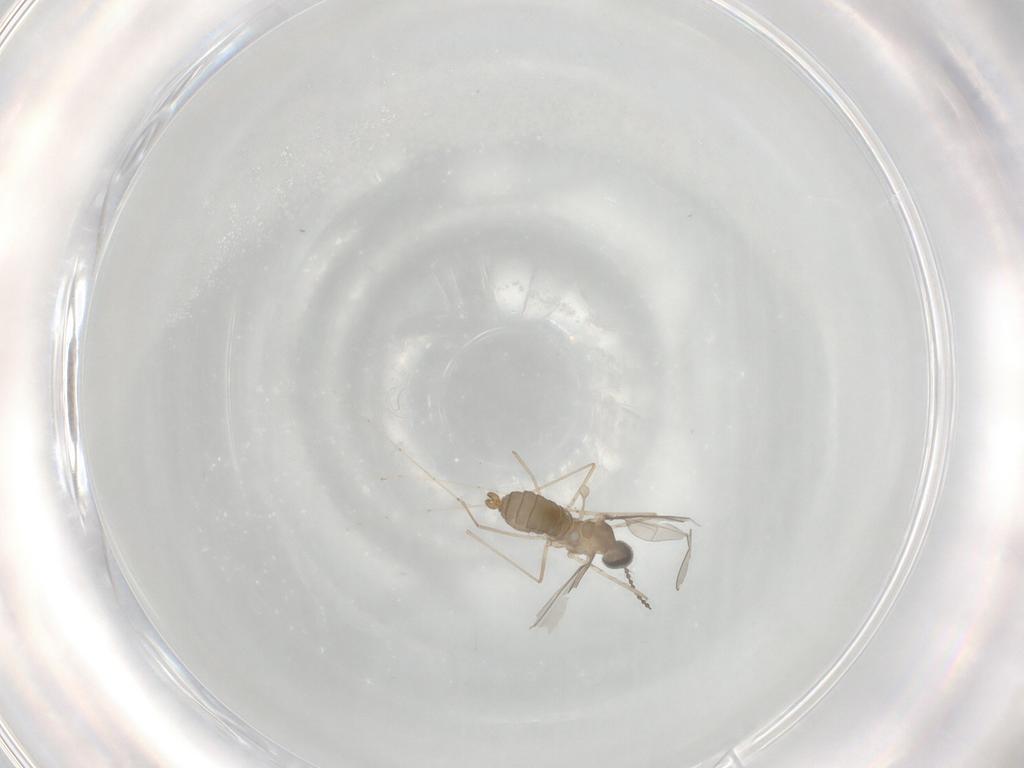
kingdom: Animalia
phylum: Arthropoda
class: Insecta
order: Diptera
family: Cecidomyiidae
